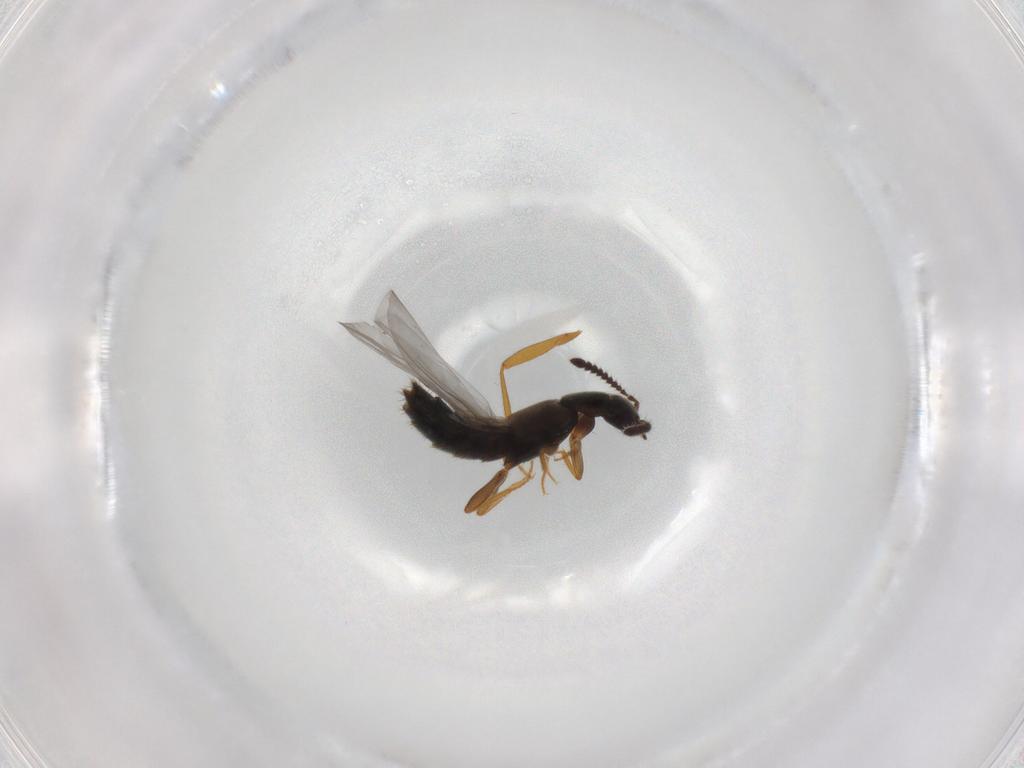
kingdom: Animalia
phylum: Arthropoda
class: Insecta
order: Coleoptera
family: Staphylinidae
